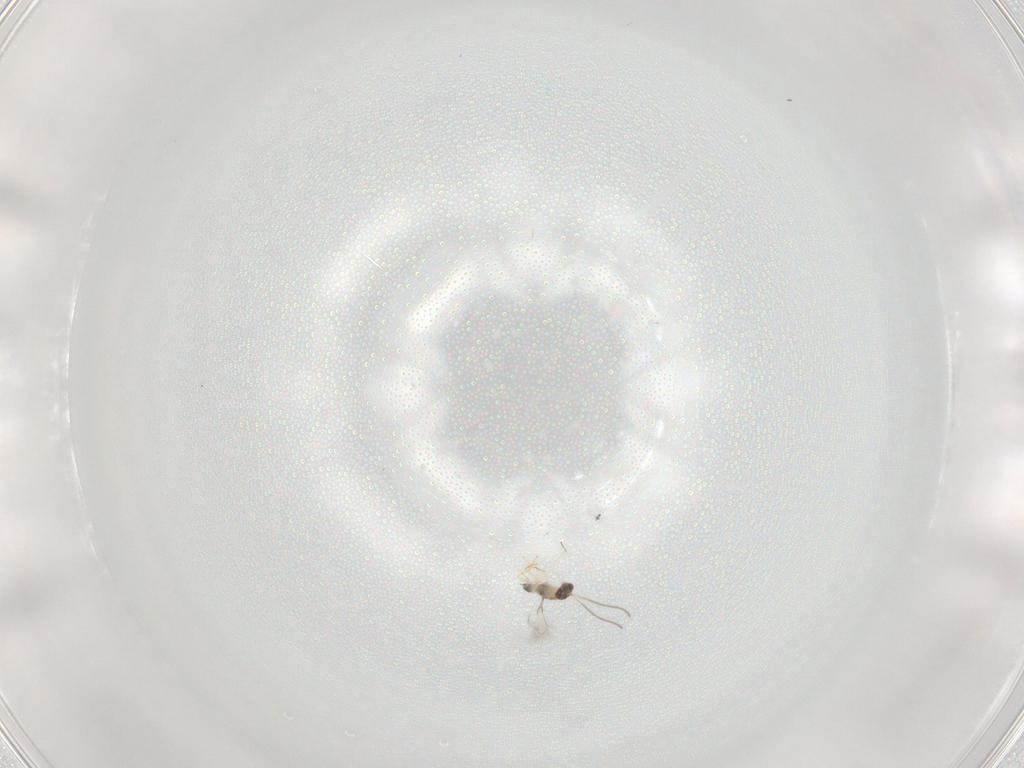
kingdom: Animalia
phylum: Arthropoda
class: Insecta
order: Hymenoptera
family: Mymaridae
